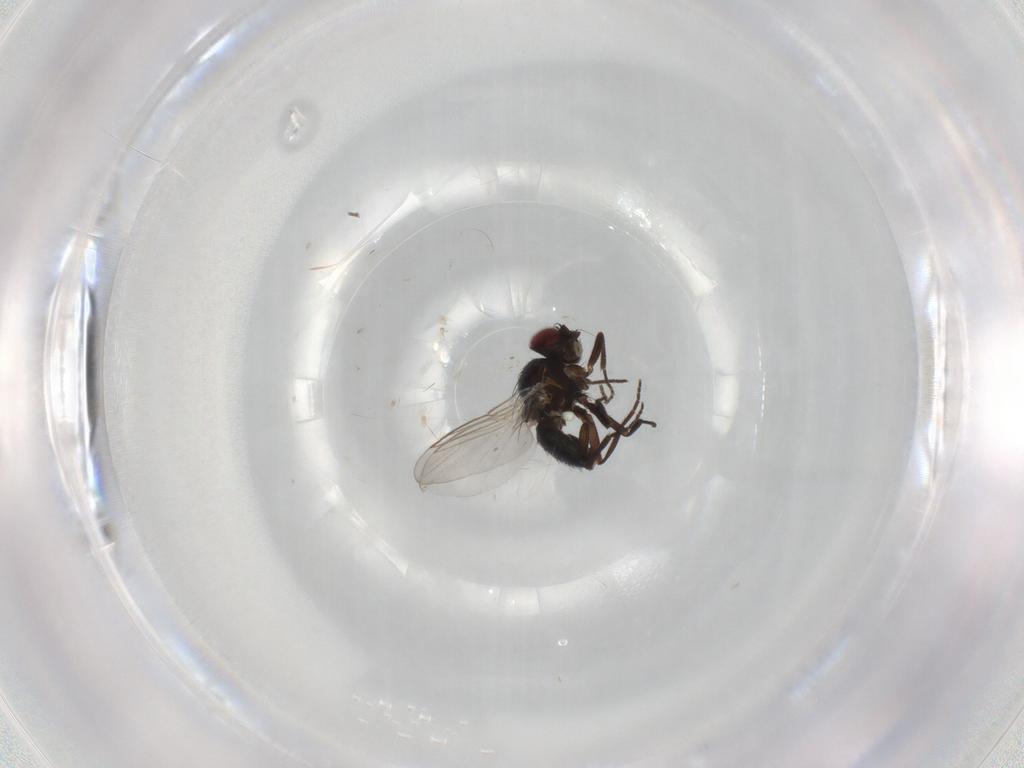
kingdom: Animalia
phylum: Arthropoda
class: Insecta
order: Diptera
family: Agromyzidae
